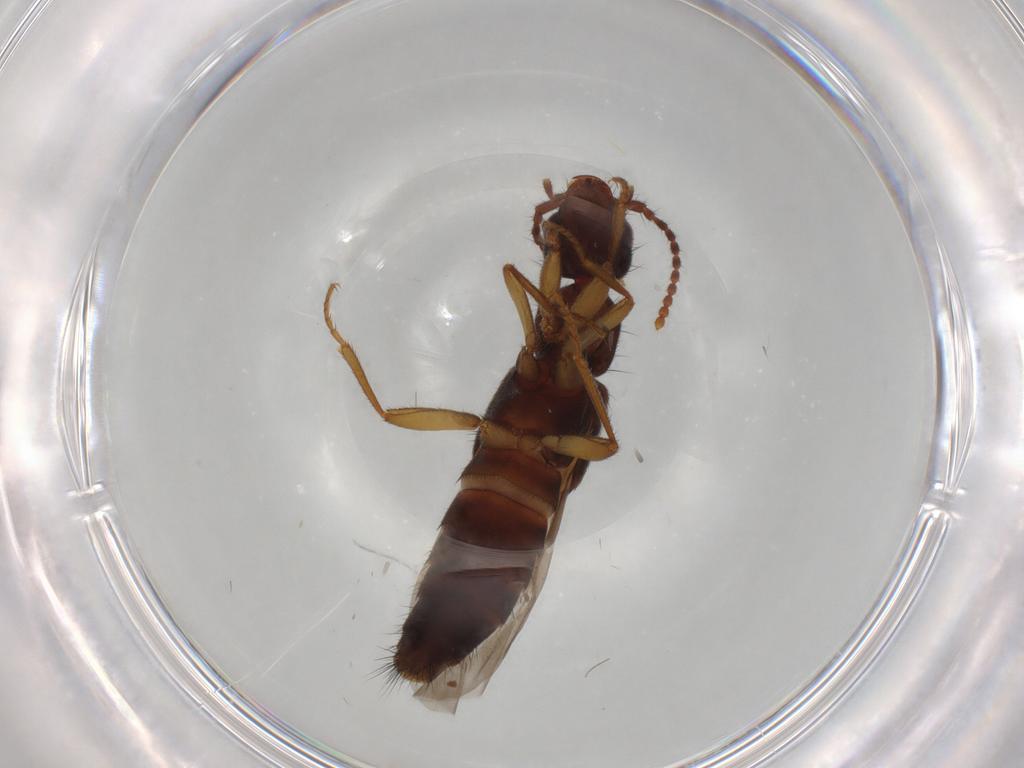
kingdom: Animalia
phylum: Arthropoda
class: Insecta
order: Coleoptera
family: Staphylinidae
